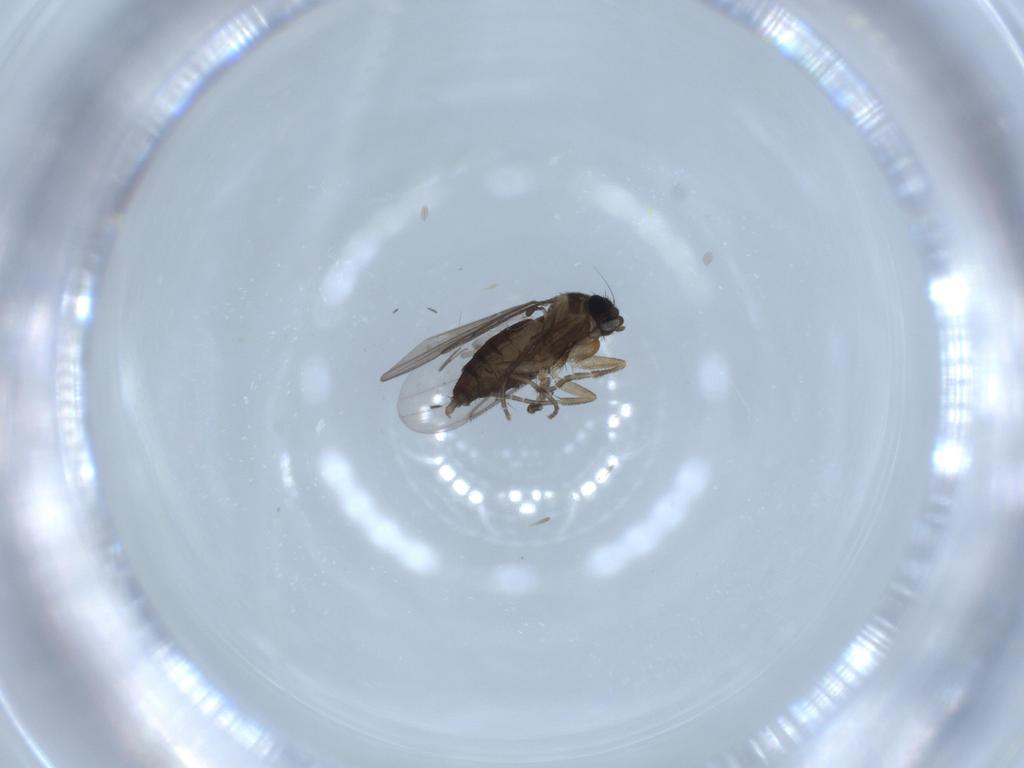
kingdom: Animalia
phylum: Arthropoda
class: Insecta
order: Diptera
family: Phoridae
